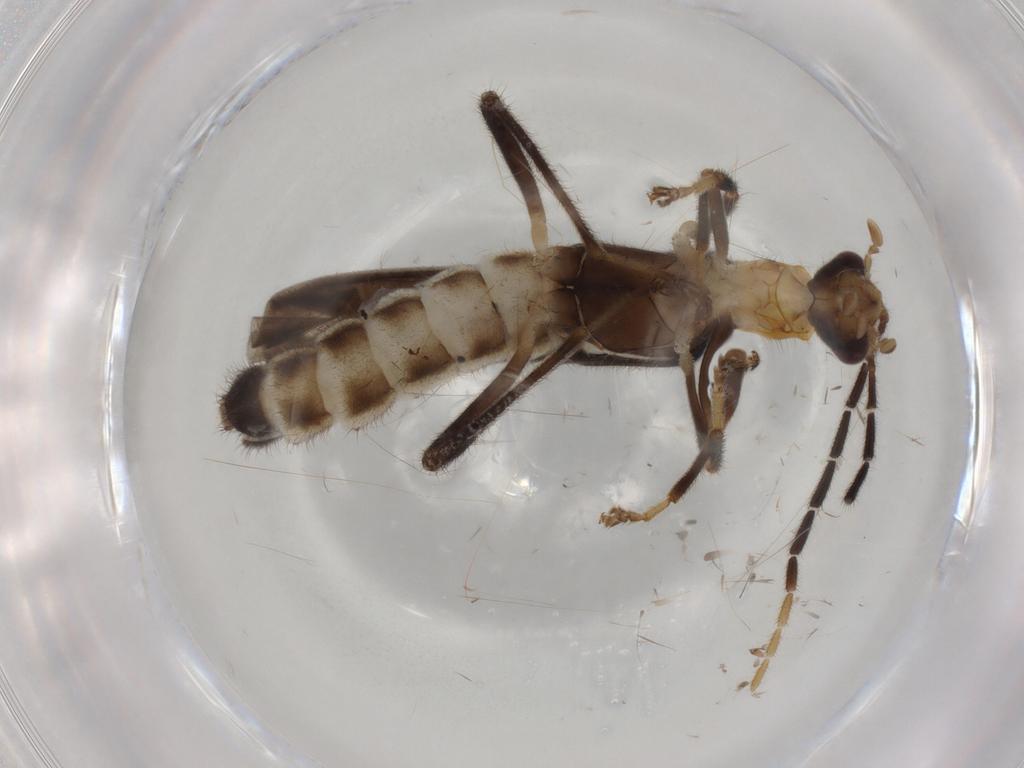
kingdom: Animalia
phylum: Arthropoda
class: Insecta
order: Coleoptera
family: Cantharidae
